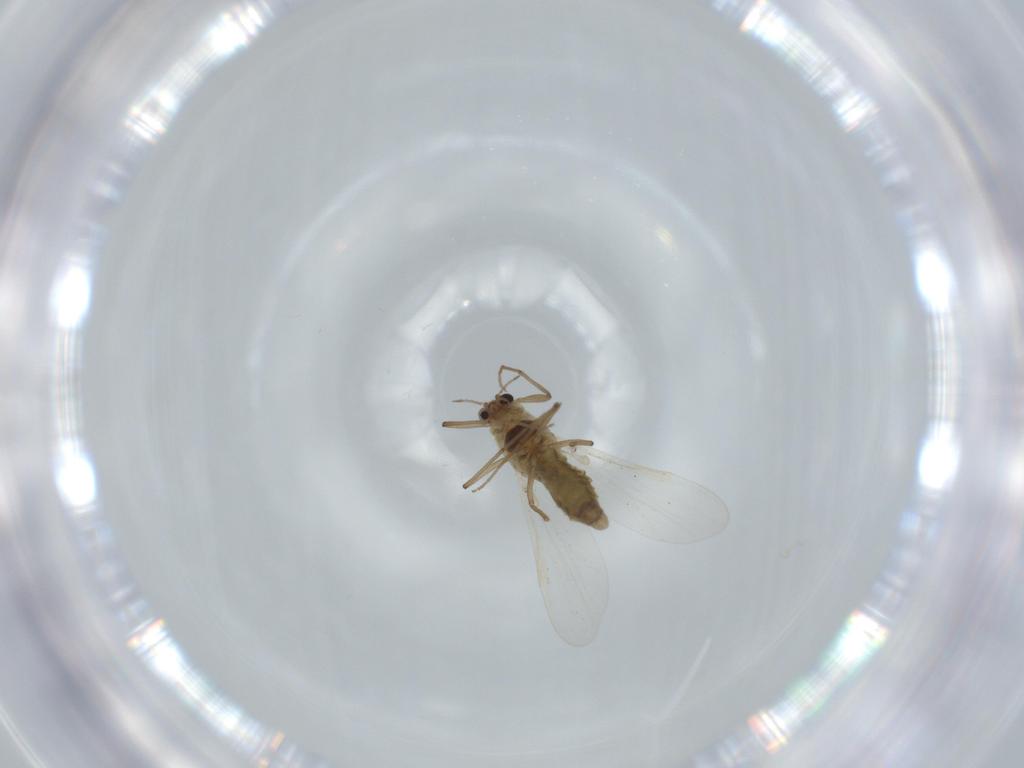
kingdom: Animalia
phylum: Arthropoda
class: Insecta
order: Diptera
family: Chironomidae
